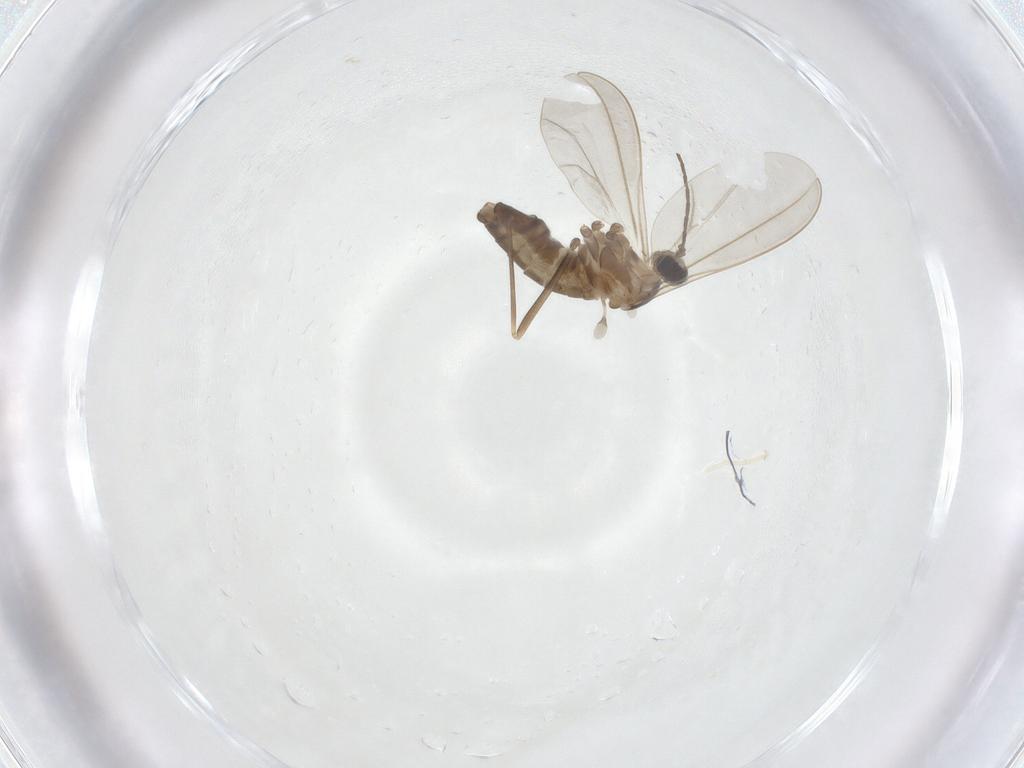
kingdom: Animalia
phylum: Arthropoda
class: Insecta
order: Diptera
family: Cecidomyiidae
